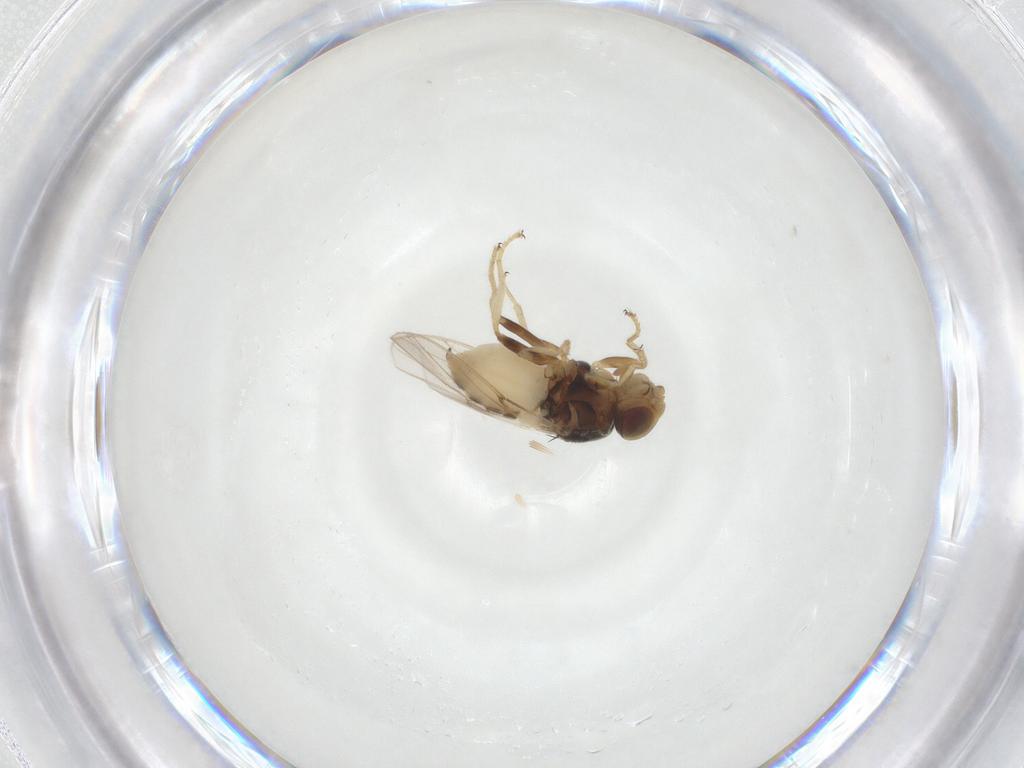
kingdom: Animalia
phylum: Arthropoda
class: Insecta
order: Diptera
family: Chloropidae
